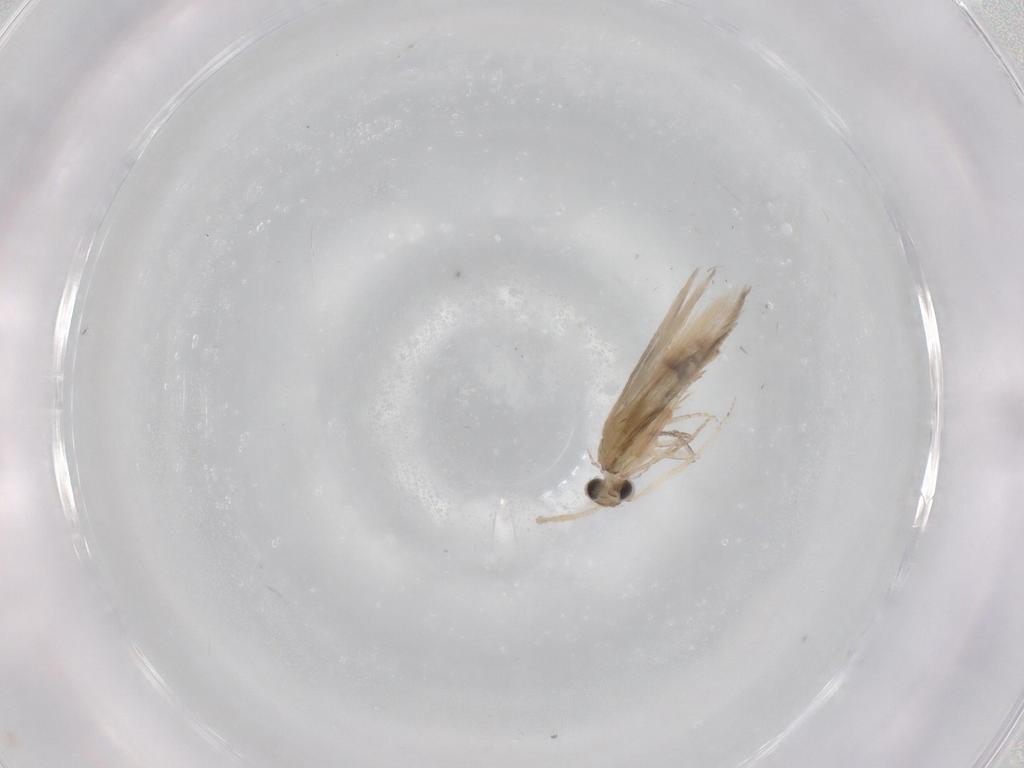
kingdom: Animalia
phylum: Arthropoda
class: Insecta
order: Trichoptera
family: Hydroptilidae
